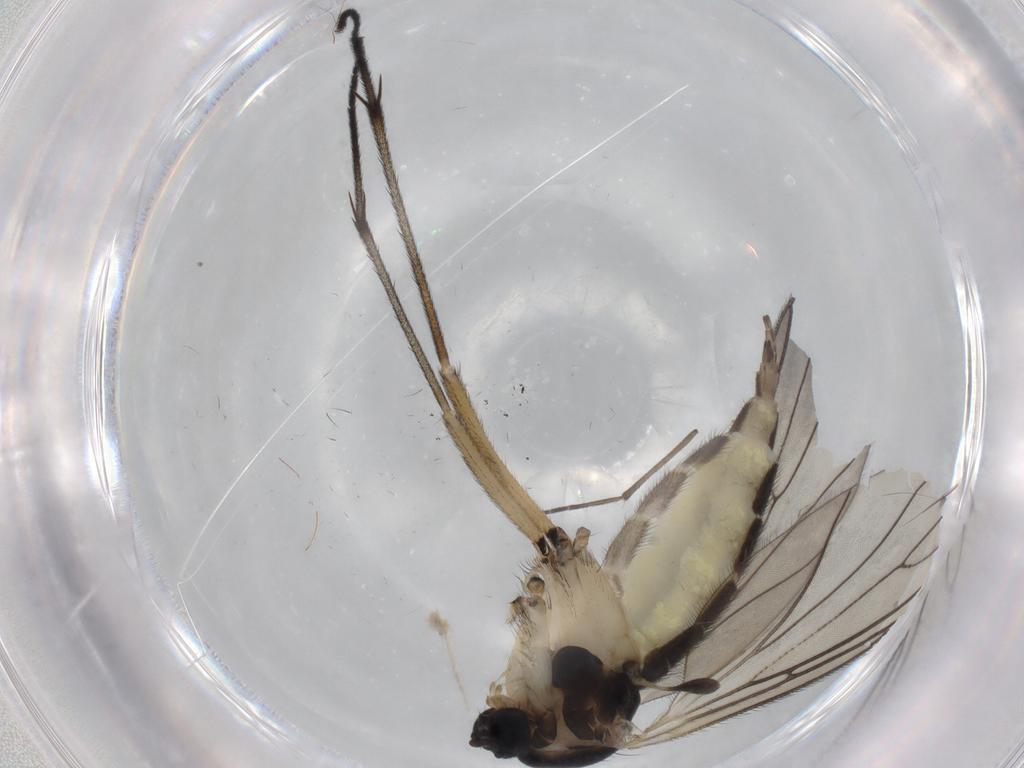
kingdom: Animalia
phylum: Arthropoda
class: Insecta
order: Diptera
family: Sciaridae
